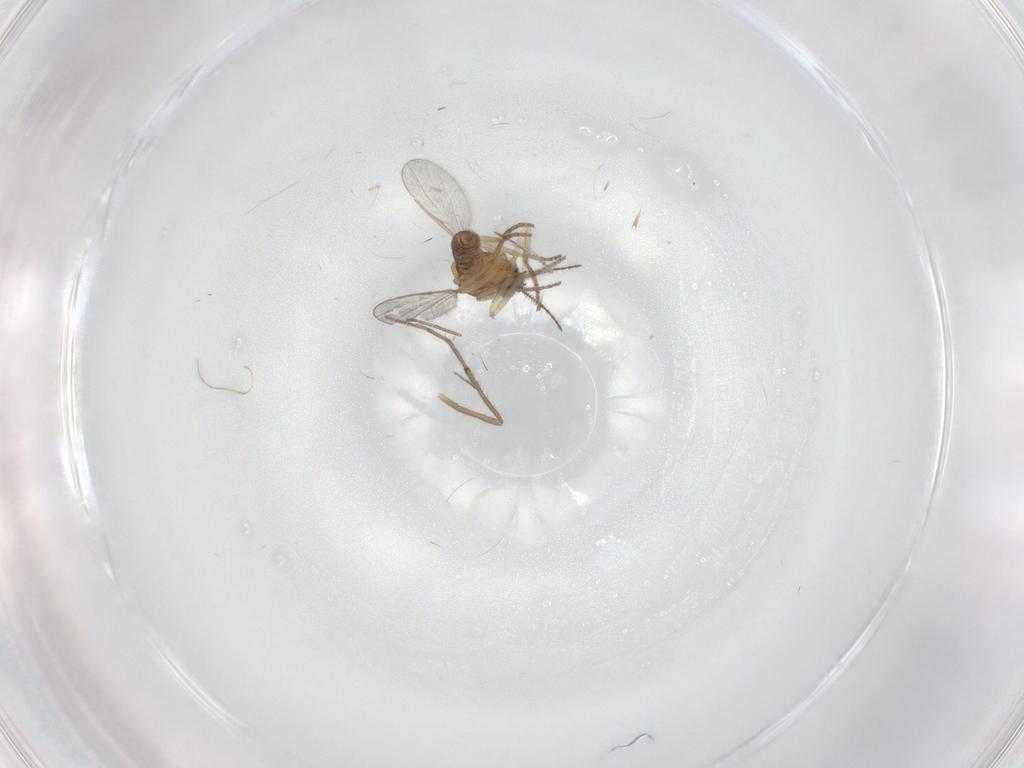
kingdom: Animalia
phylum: Arthropoda
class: Insecta
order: Diptera
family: Chironomidae
